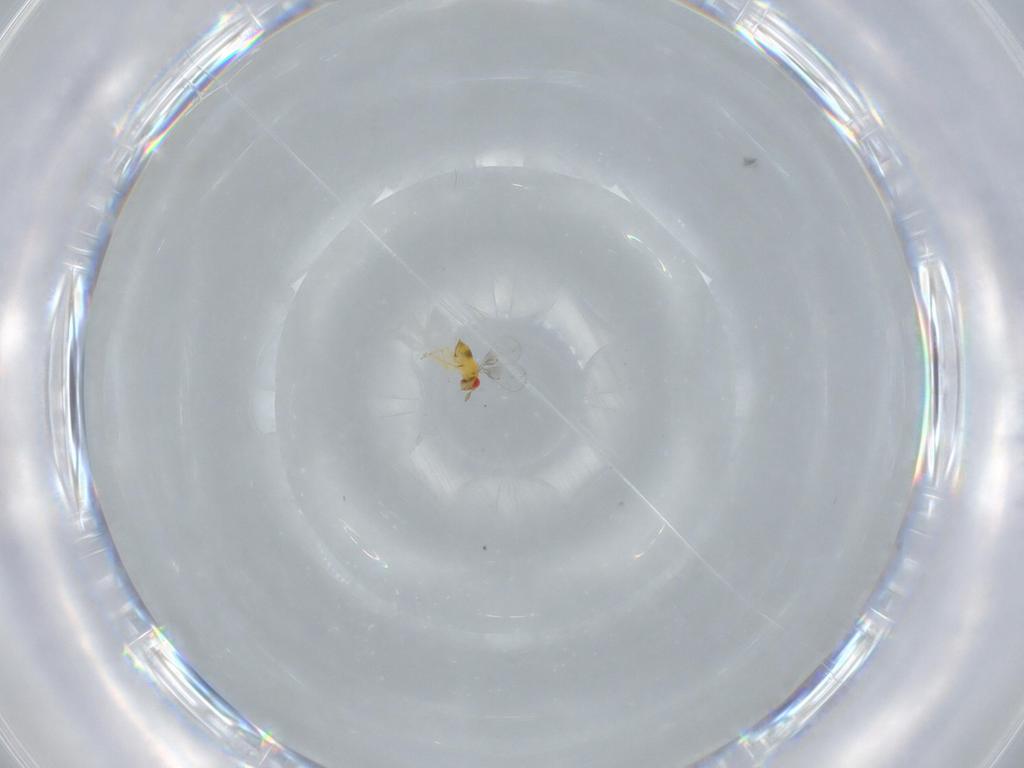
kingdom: Animalia
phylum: Arthropoda
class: Insecta
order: Hymenoptera
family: Trichogrammatidae
